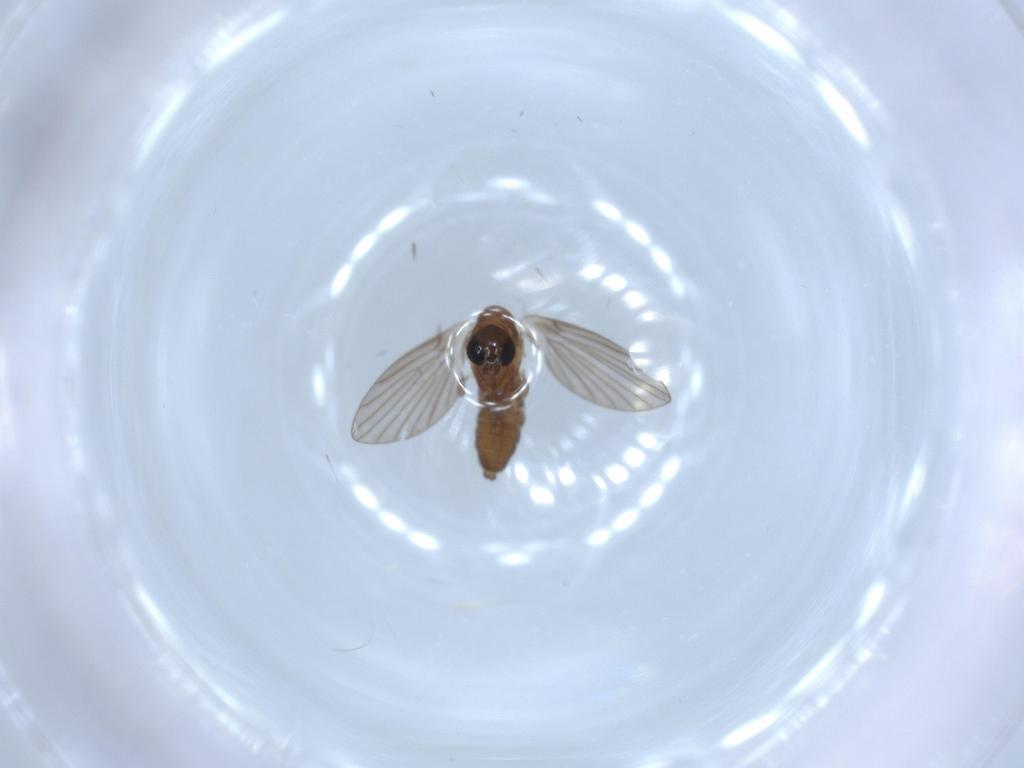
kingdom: Animalia
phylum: Arthropoda
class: Insecta
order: Diptera
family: Psychodidae
